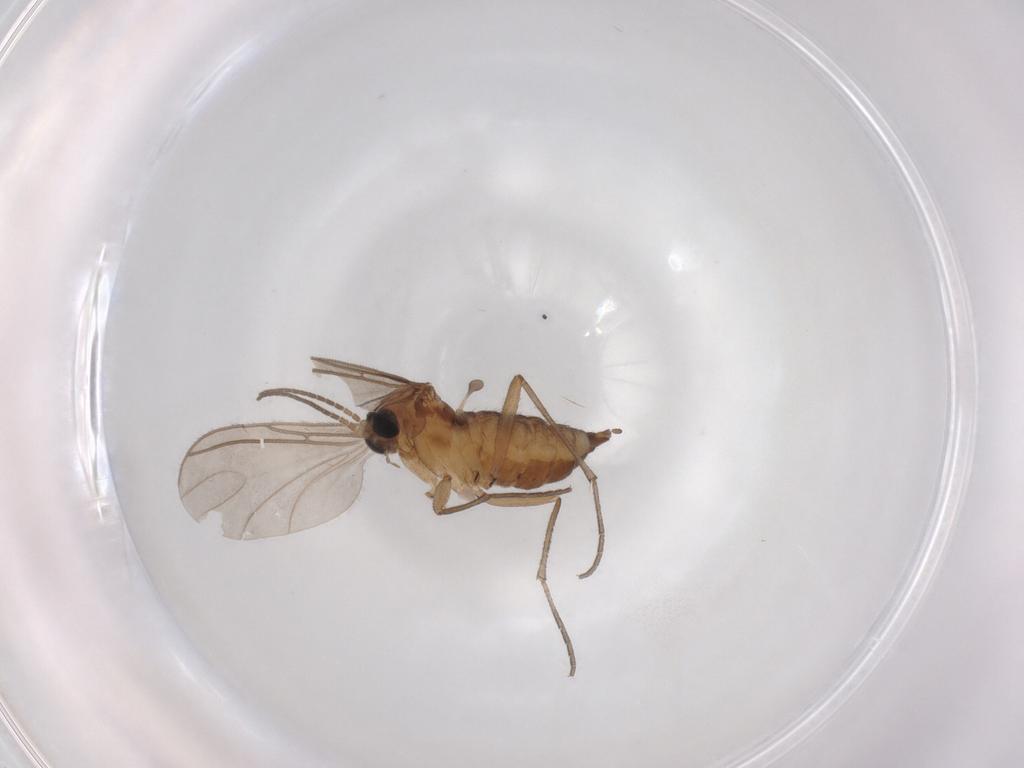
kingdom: Animalia
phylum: Arthropoda
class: Insecta
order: Diptera
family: Sciaridae
